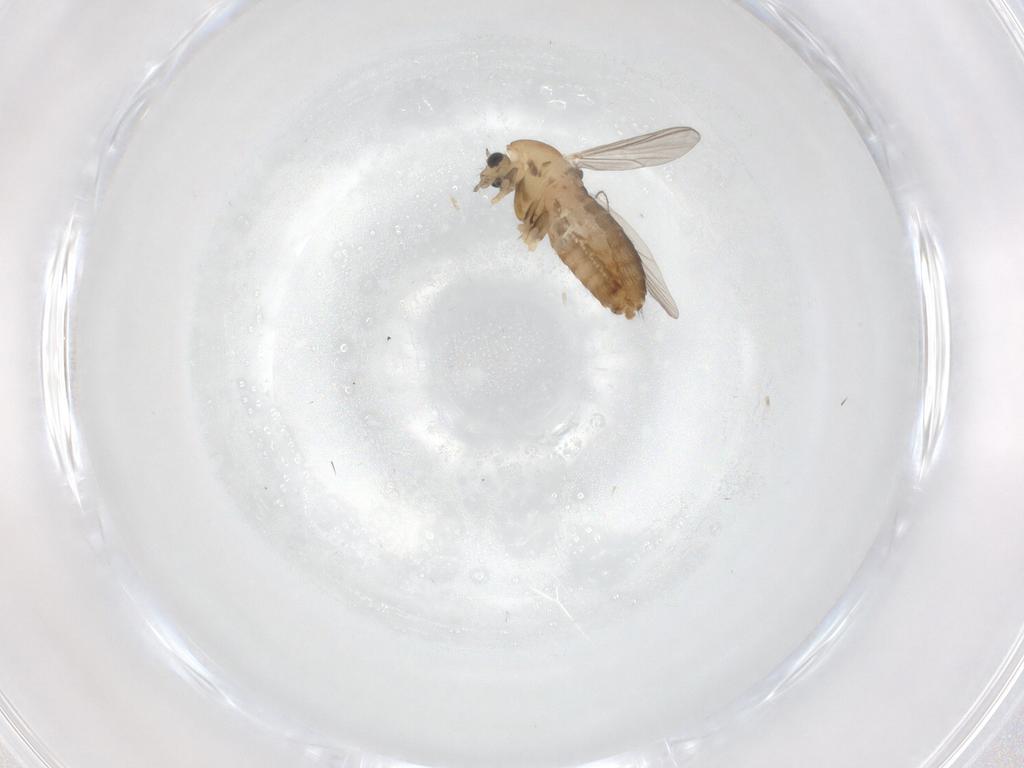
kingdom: Animalia
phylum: Arthropoda
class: Insecta
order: Diptera
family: Chironomidae
